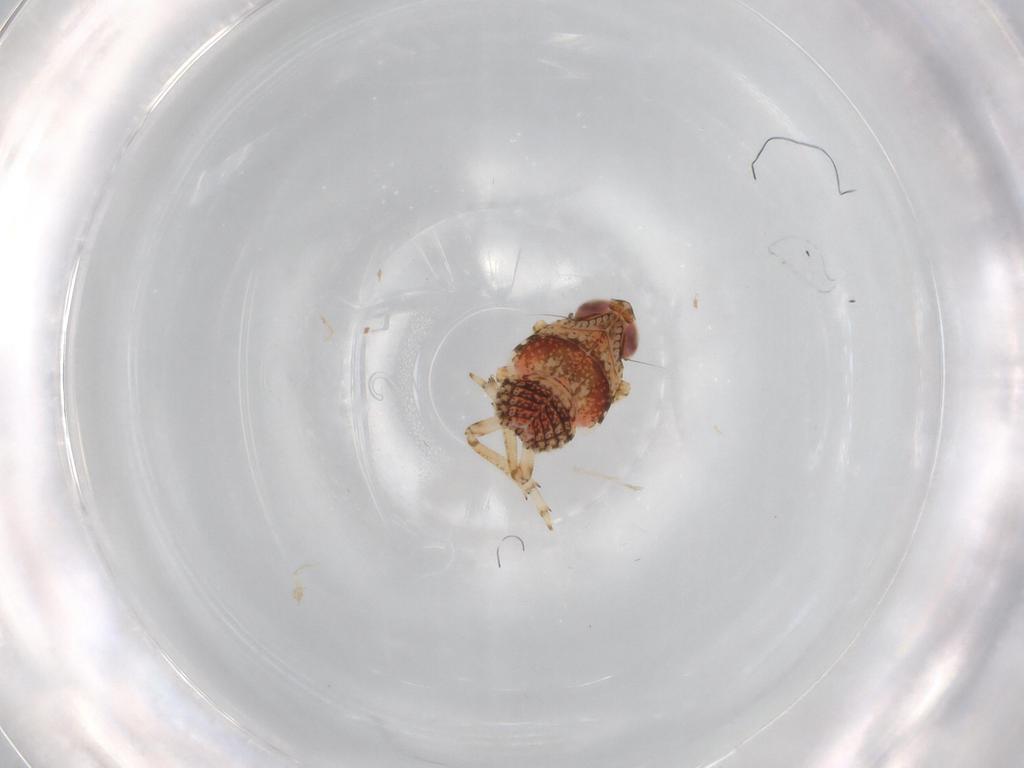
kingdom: Animalia
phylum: Arthropoda
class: Insecta
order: Hemiptera
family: Issidae
